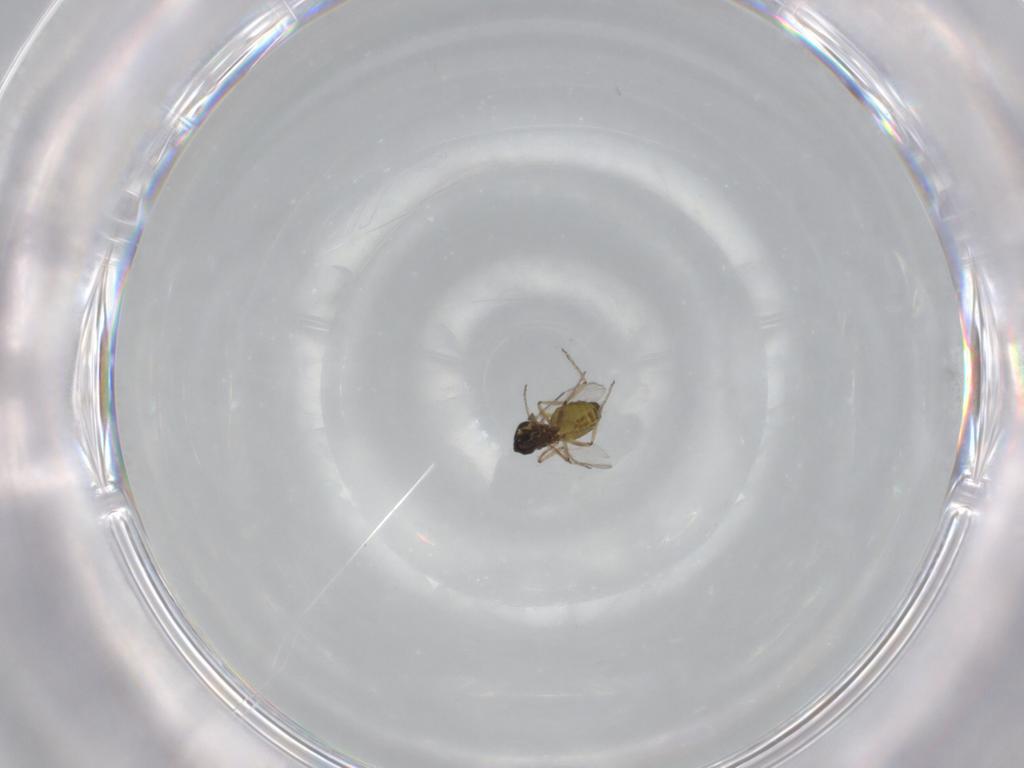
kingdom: Animalia
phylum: Arthropoda
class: Insecta
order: Diptera
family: Ceratopogonidae
